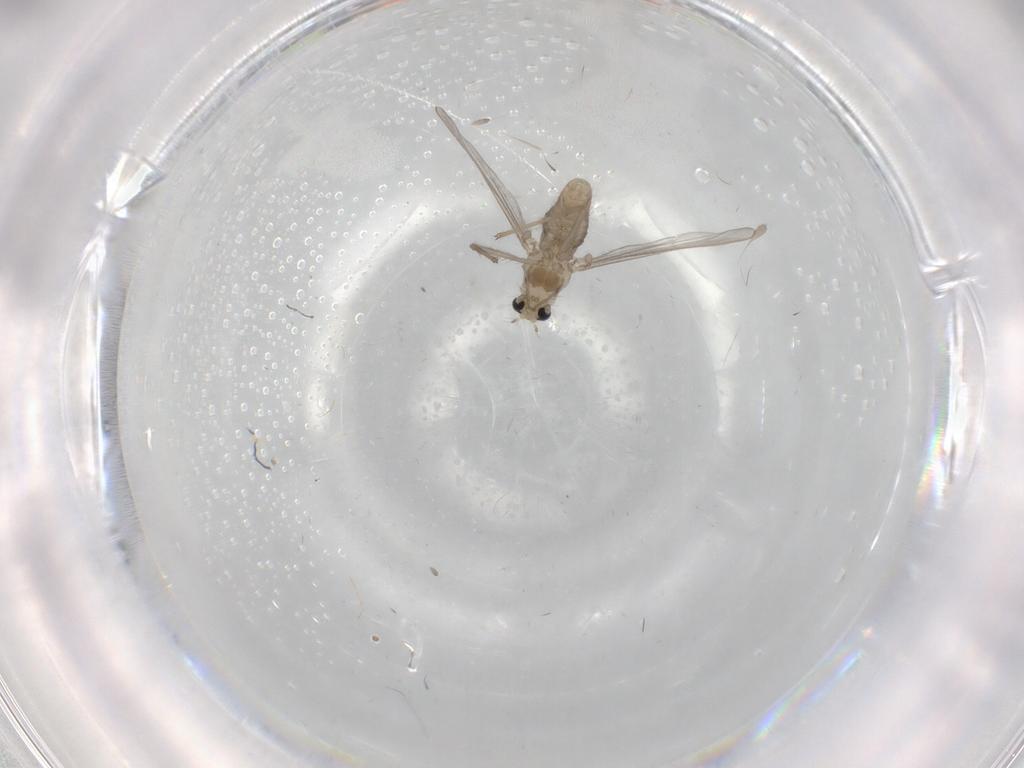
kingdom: Animalia
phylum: Arthropoda
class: Insecta
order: Diptera
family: Chironomidae
